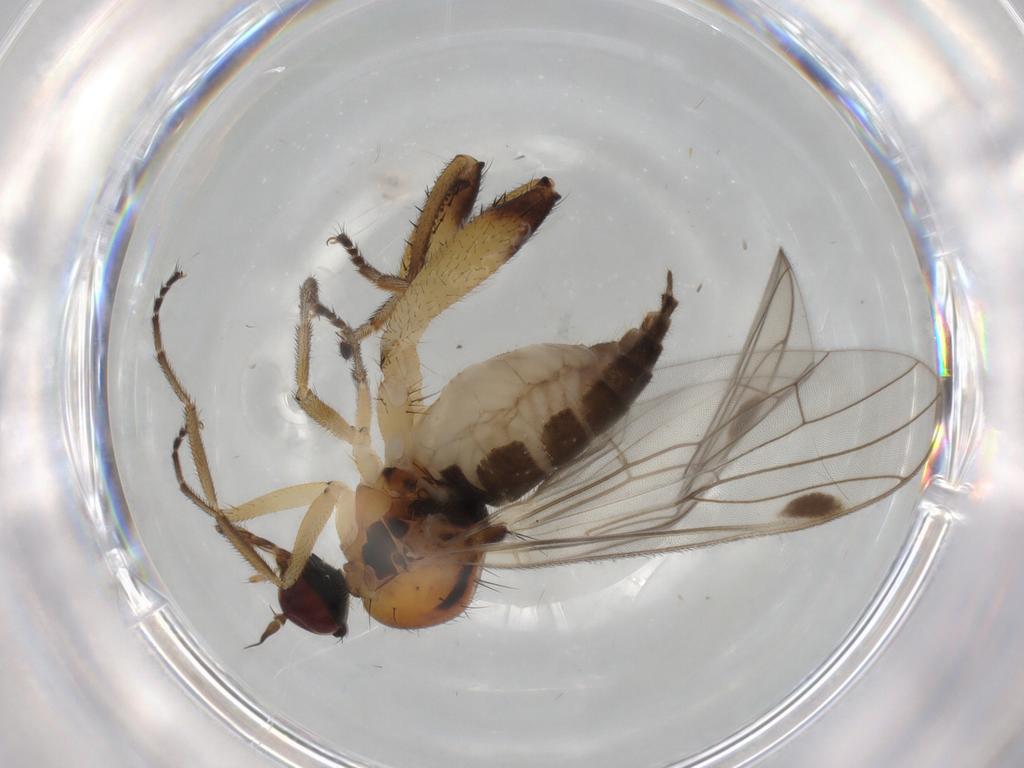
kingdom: Animalia
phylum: Arthropoda
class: Insecta
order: Diptera
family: Hybotidae
